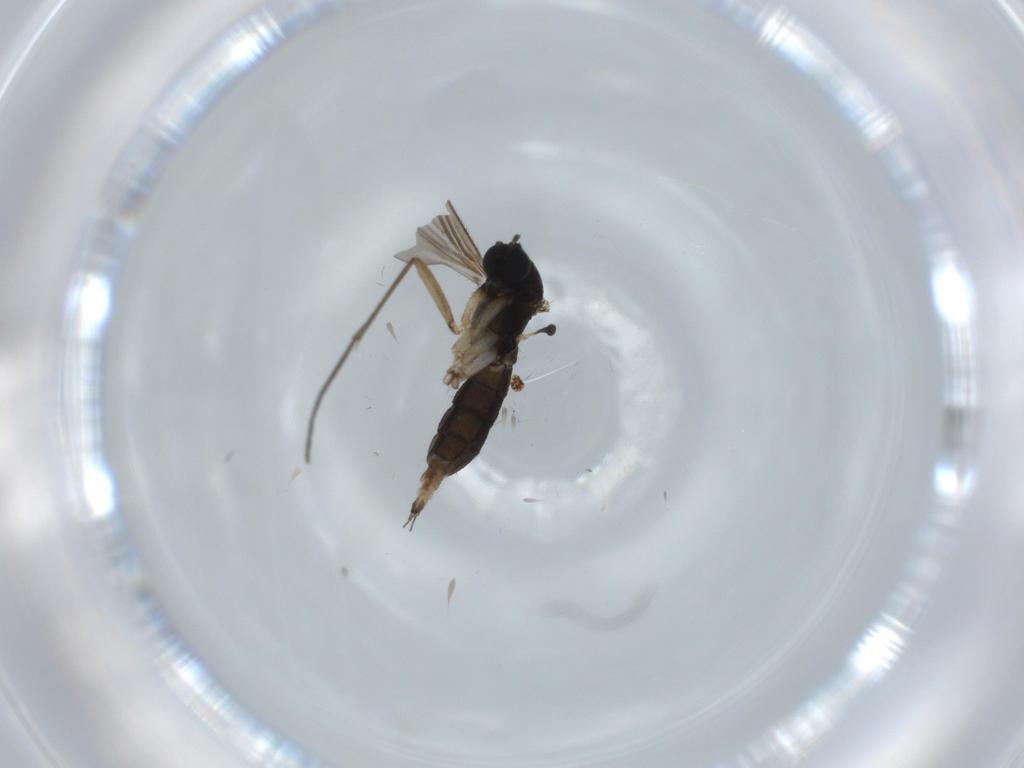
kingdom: Animalia
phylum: Arthropoda
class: Insecta
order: Diptera
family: Sciaridae
